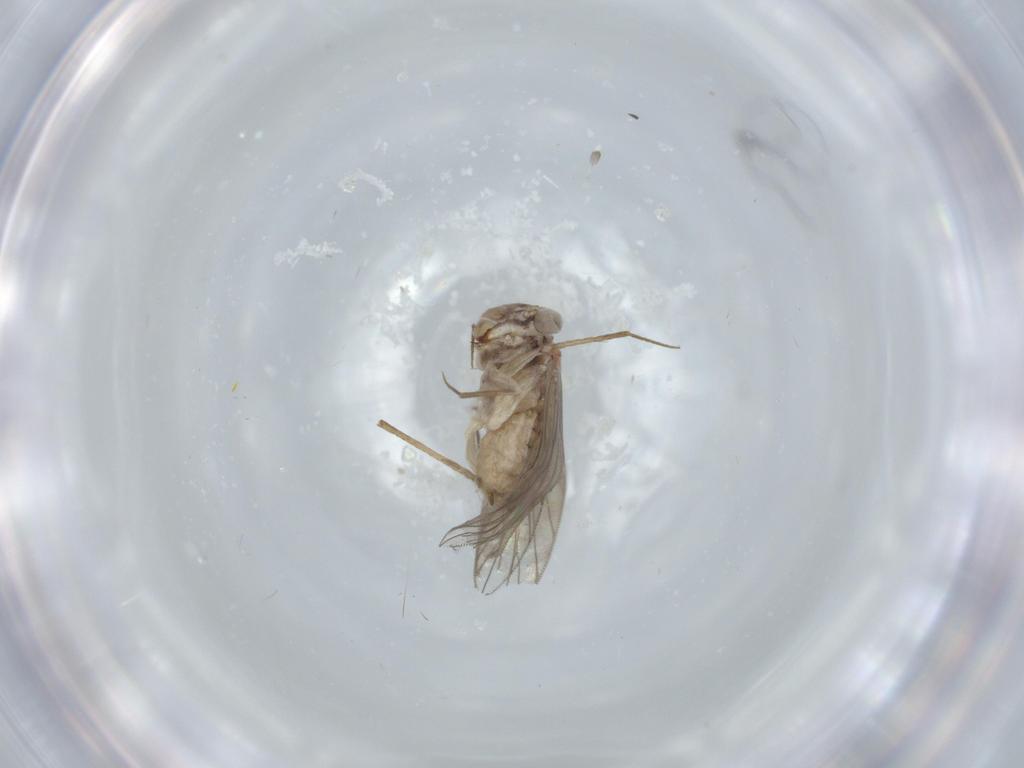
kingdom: Animalia
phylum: Arthropoda
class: Insecta
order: Psocodea
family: Lepidopsocidae
